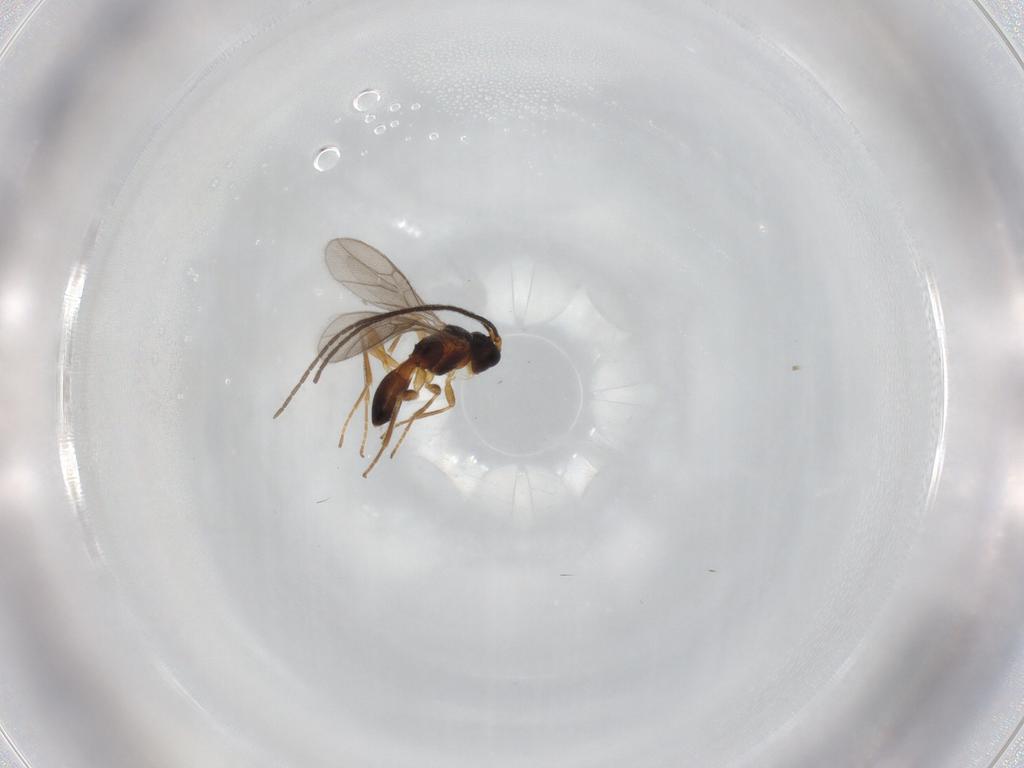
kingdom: Animalia
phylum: Arthropoda
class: Insecta
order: Hymenoptera
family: Braconidae
